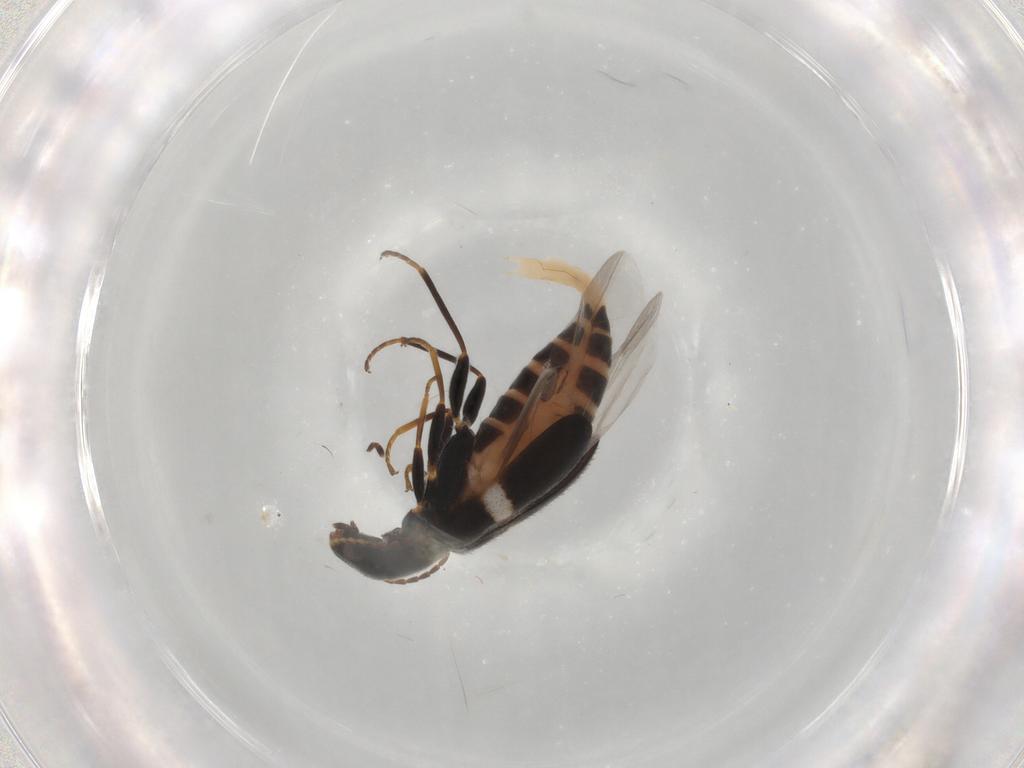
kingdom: Animalia
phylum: Arthropoda
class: Insecta
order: Coleoptera
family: Melyridae
